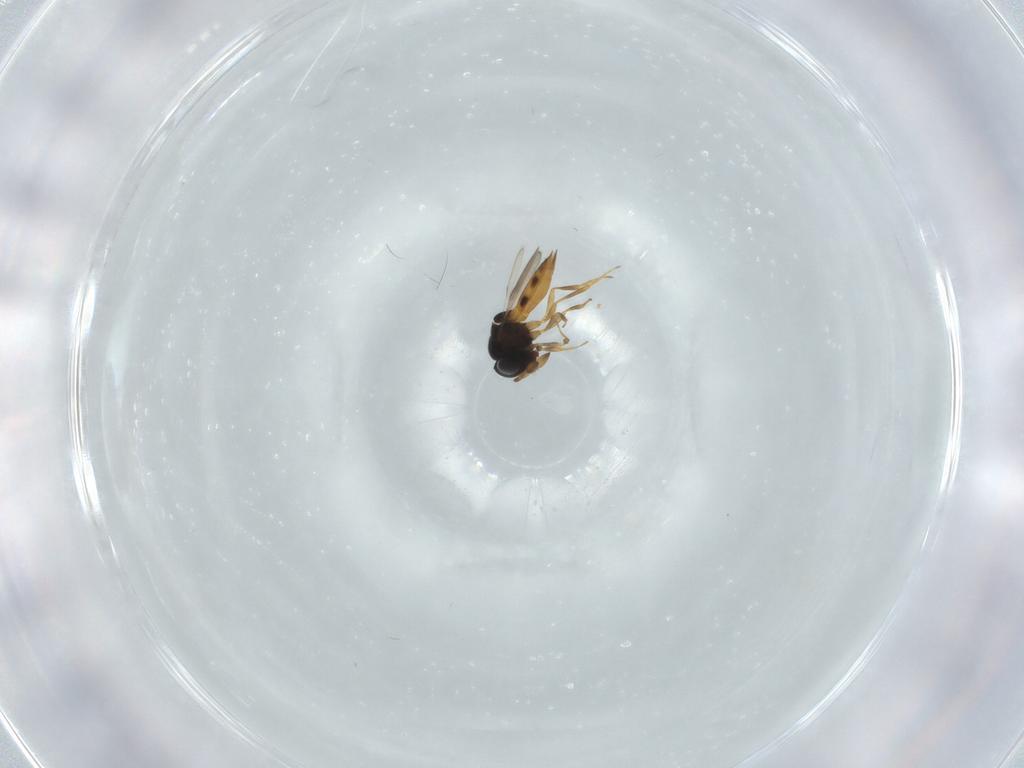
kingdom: Animalia
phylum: Arthropoda
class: Arachnida
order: Araneae
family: Pholcidae
